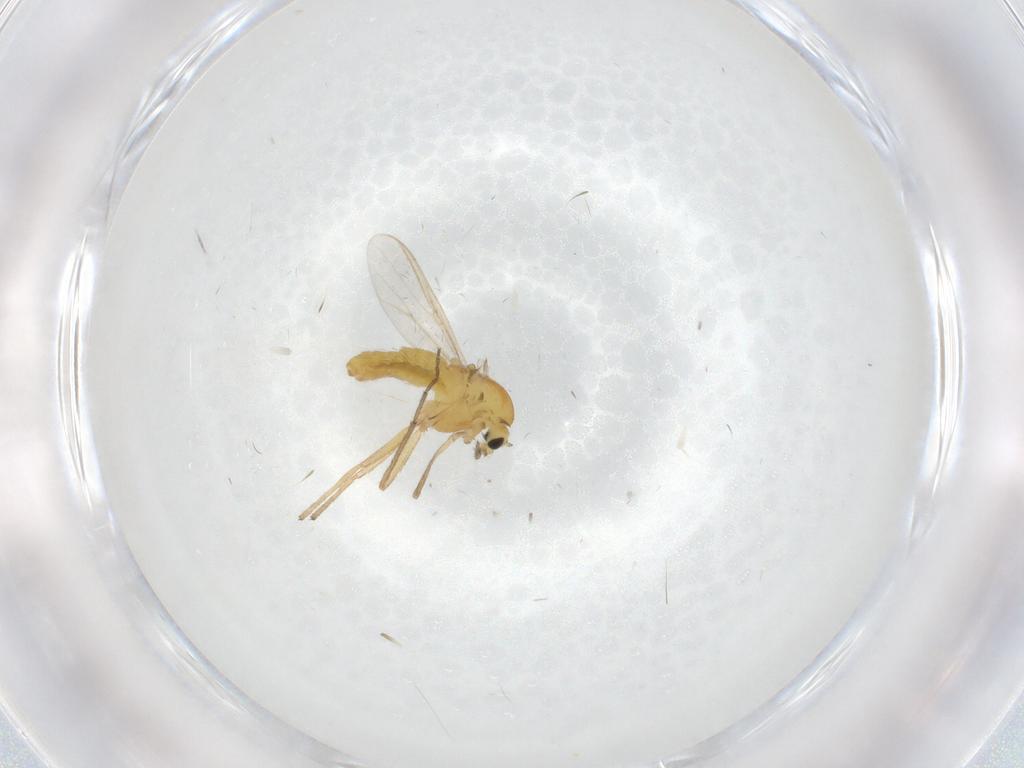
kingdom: Animalia
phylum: Arthropoda
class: Insecta
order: Diptera
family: Chironomidae
